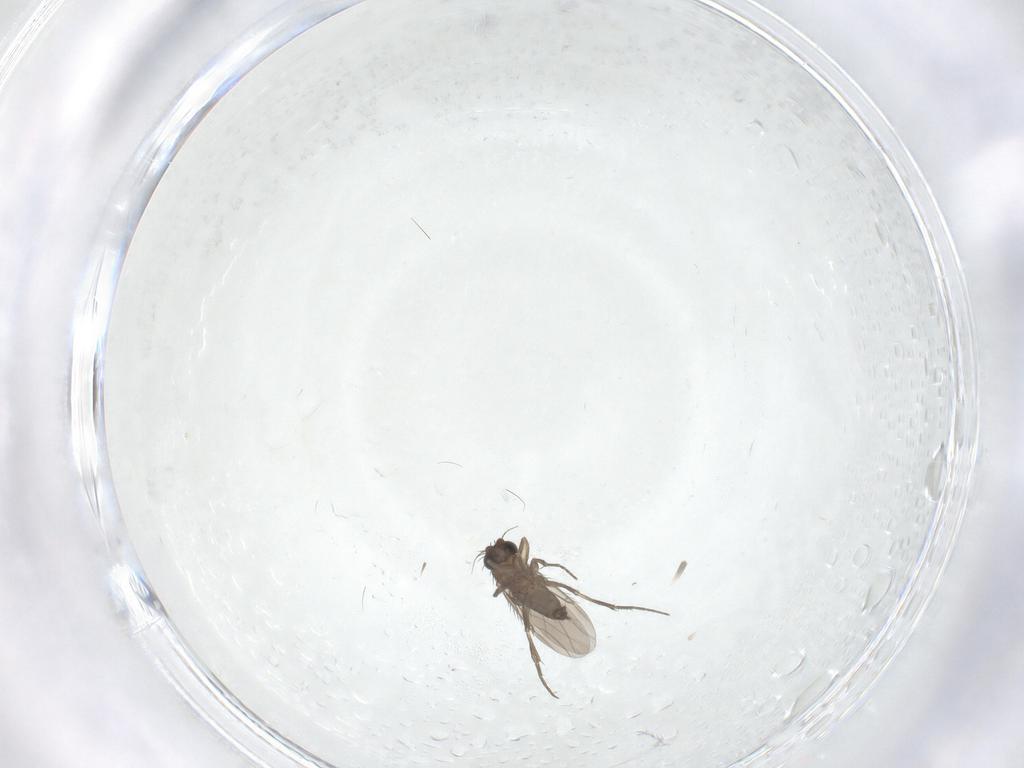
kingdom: Animalia
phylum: Arthropoda
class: Insecta
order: Diptera
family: Phoridae
